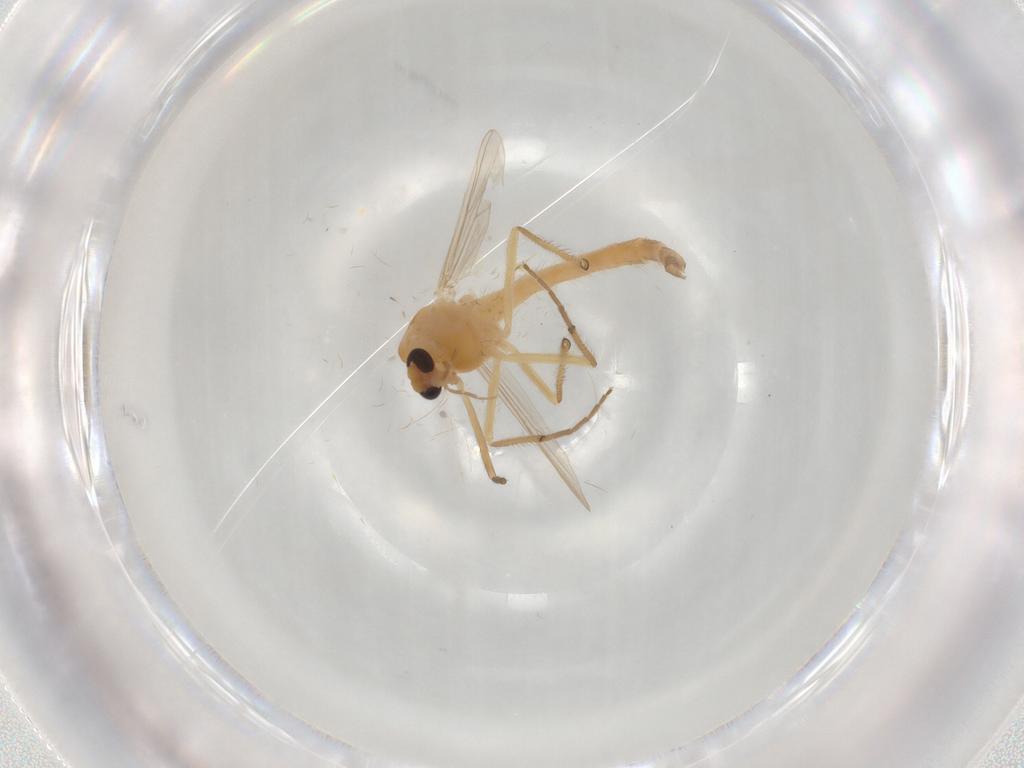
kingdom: Animalia
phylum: Arthropoda
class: Insecta
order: Diptera
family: Chironomidae
